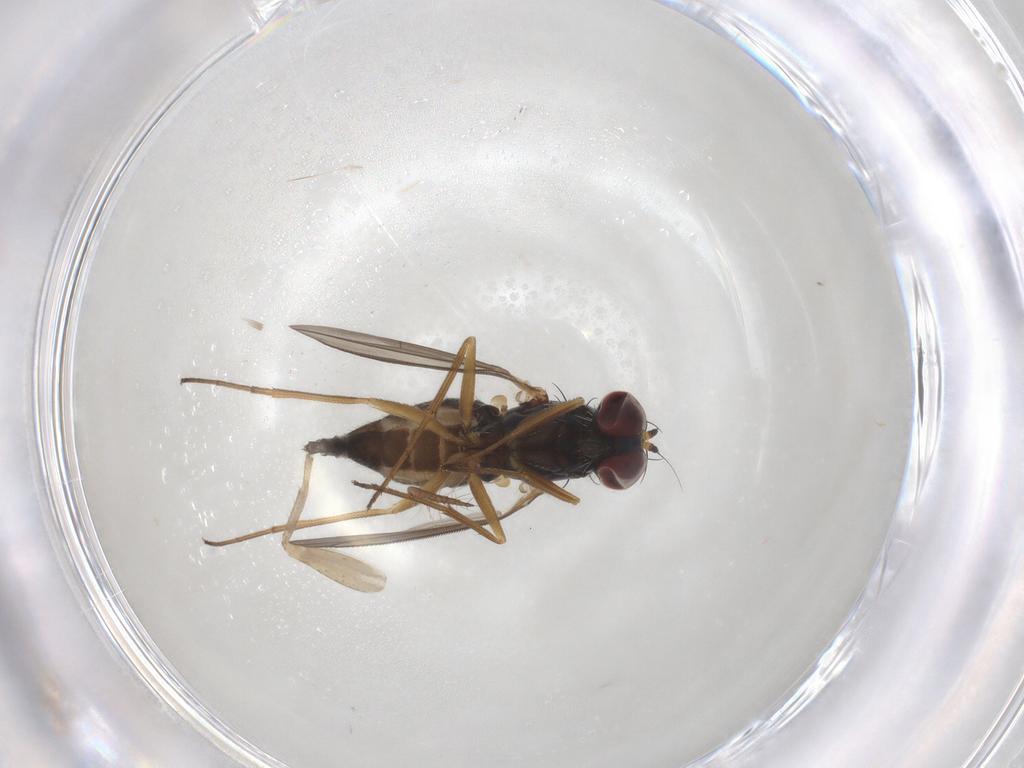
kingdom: Animalia
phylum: Arthropoda
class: Insecta
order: Diptera
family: Dolichopodidae
